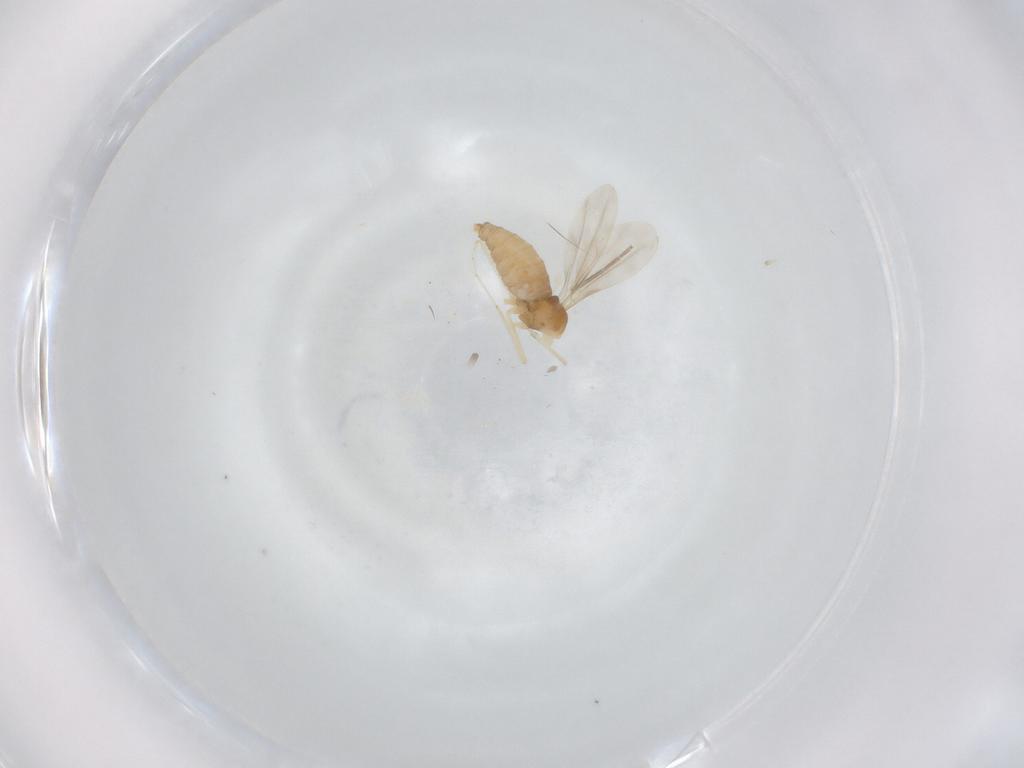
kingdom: Animalia
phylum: Arthropoda
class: Insecta
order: Diptera
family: Cecidomyiidae
